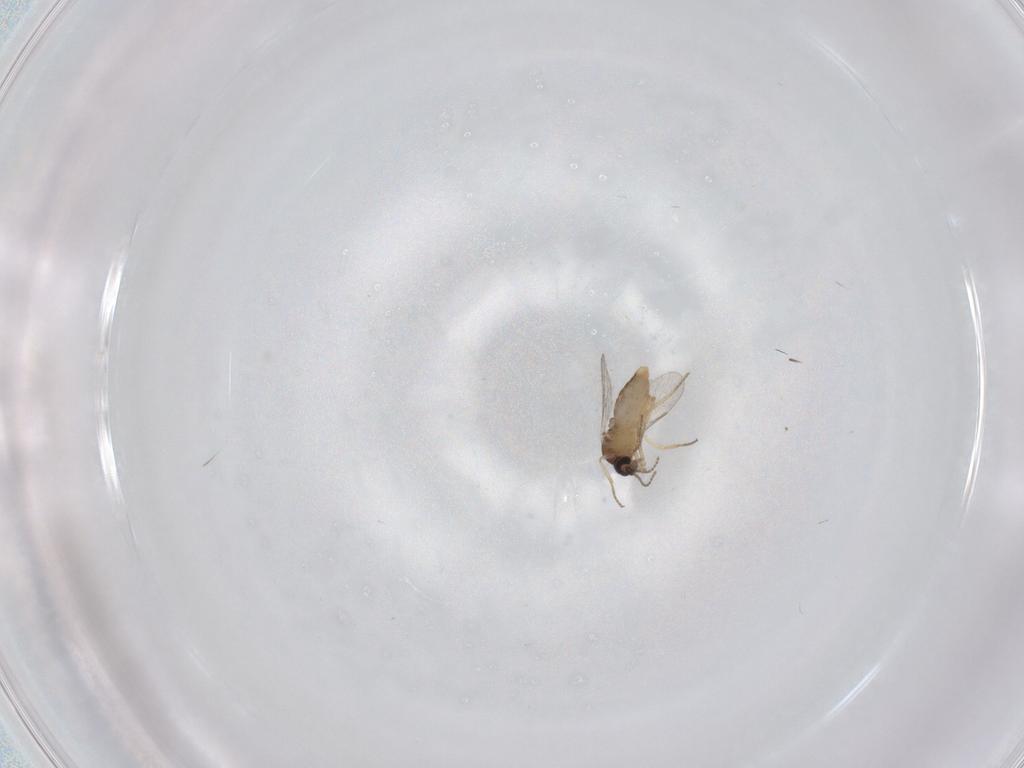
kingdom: Animalia
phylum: Arthropoda
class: Insecta
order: Diptera
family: Ceratopogonidae
